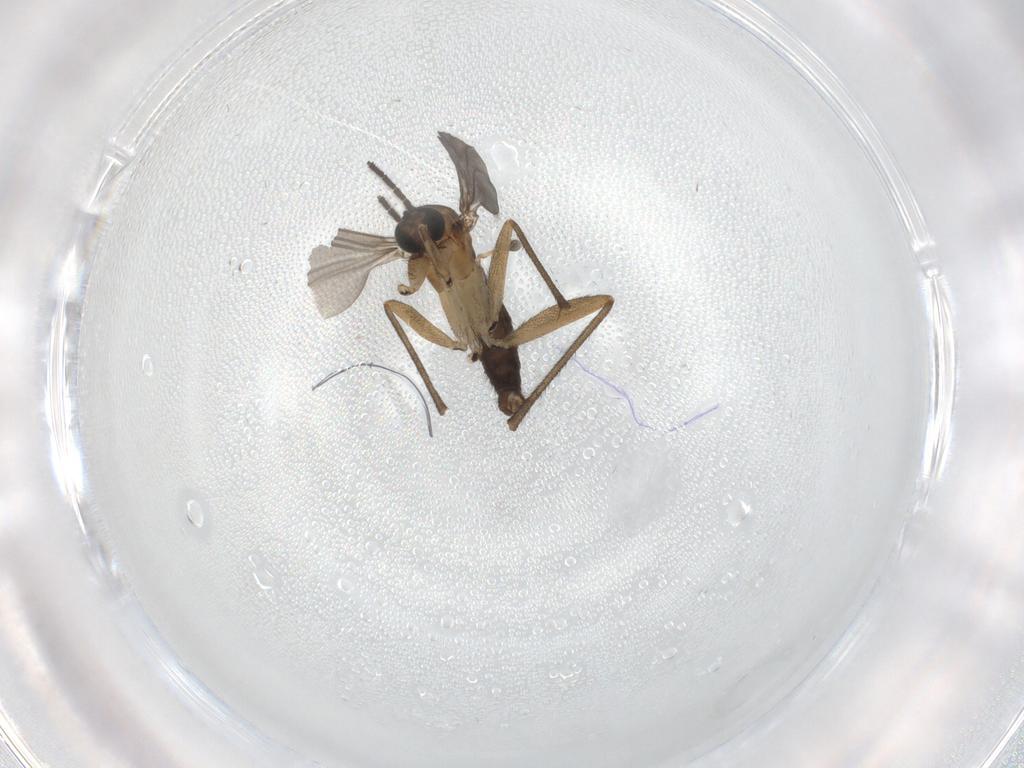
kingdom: Animalia
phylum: Arthropoda
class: Insecta
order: Diptera
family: Sciaridae
